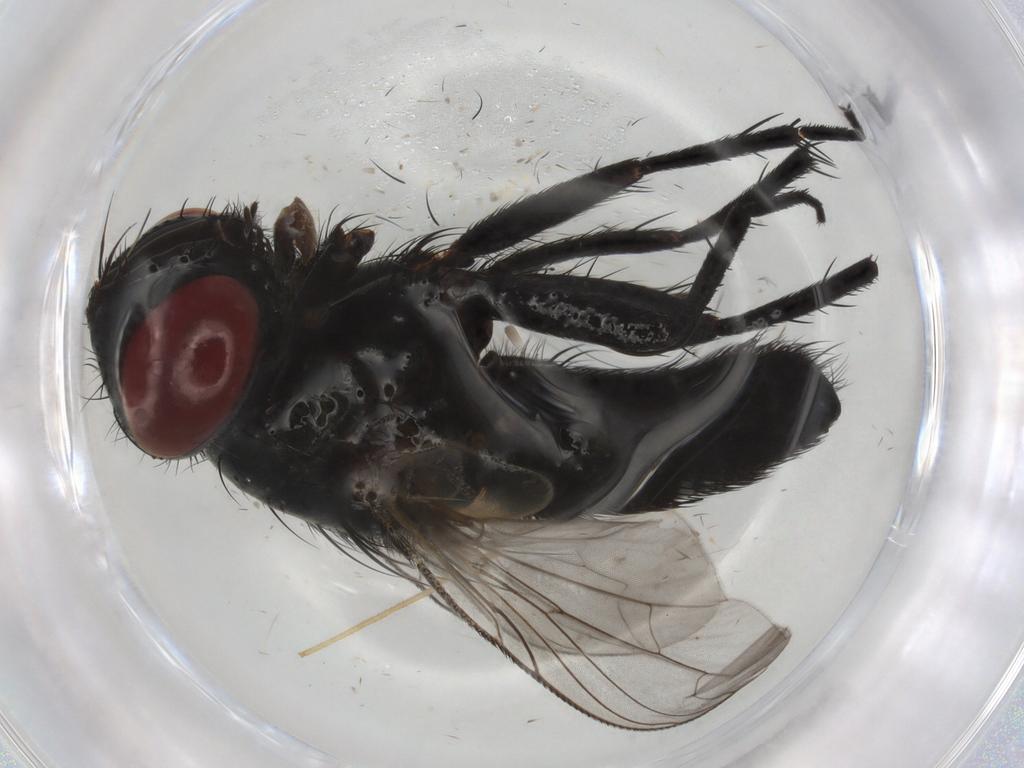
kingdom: Animalia
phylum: Arthropoda
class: Insecta
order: Diptera
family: Sarcophagidae
